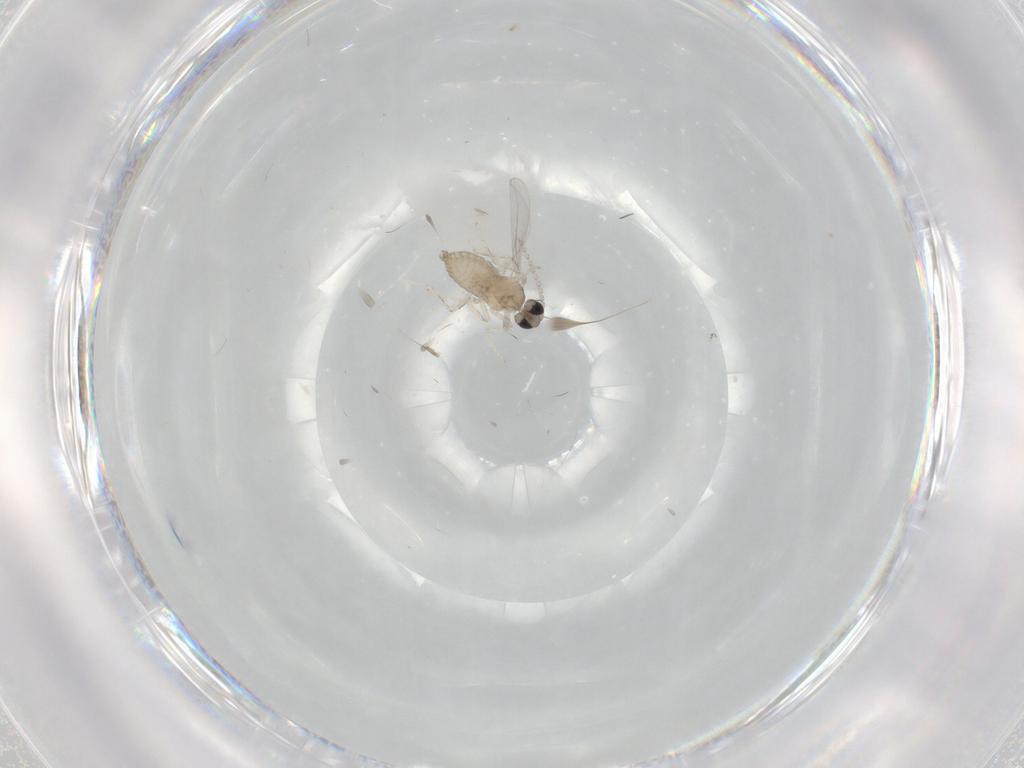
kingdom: Animalia
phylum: Arthropoda
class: Insecta
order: Diptera
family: Cecidomyiidae
